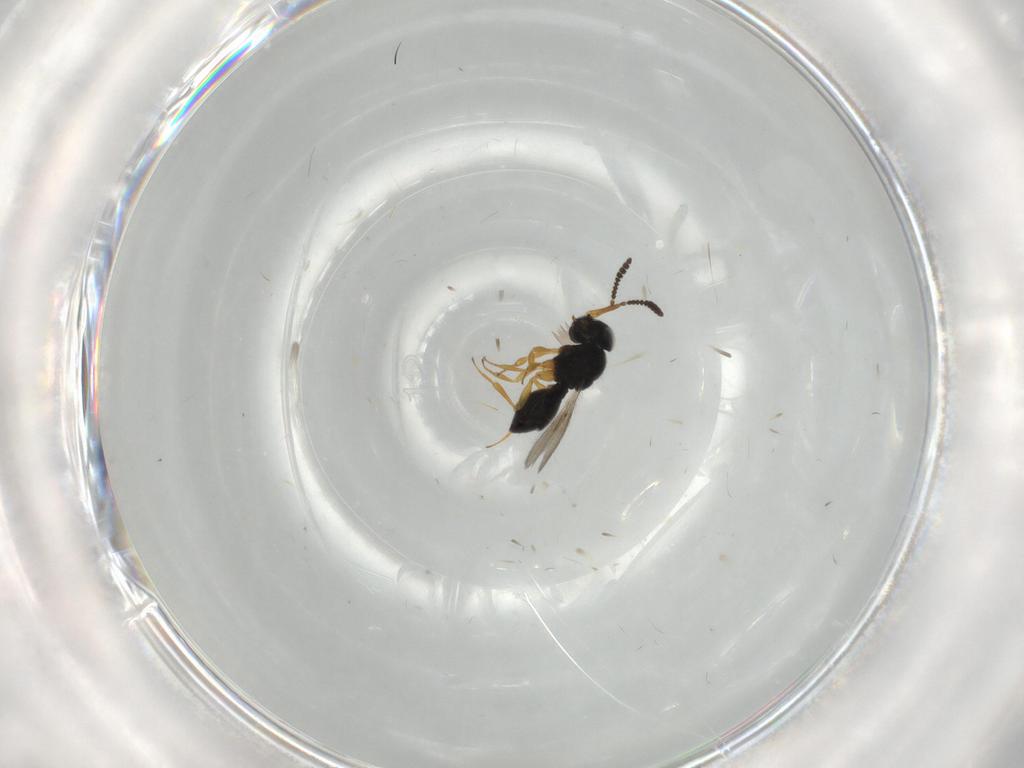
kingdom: Animalia
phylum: Arthropoda
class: Insecta
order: Hymenoptera
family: Scelionidae
